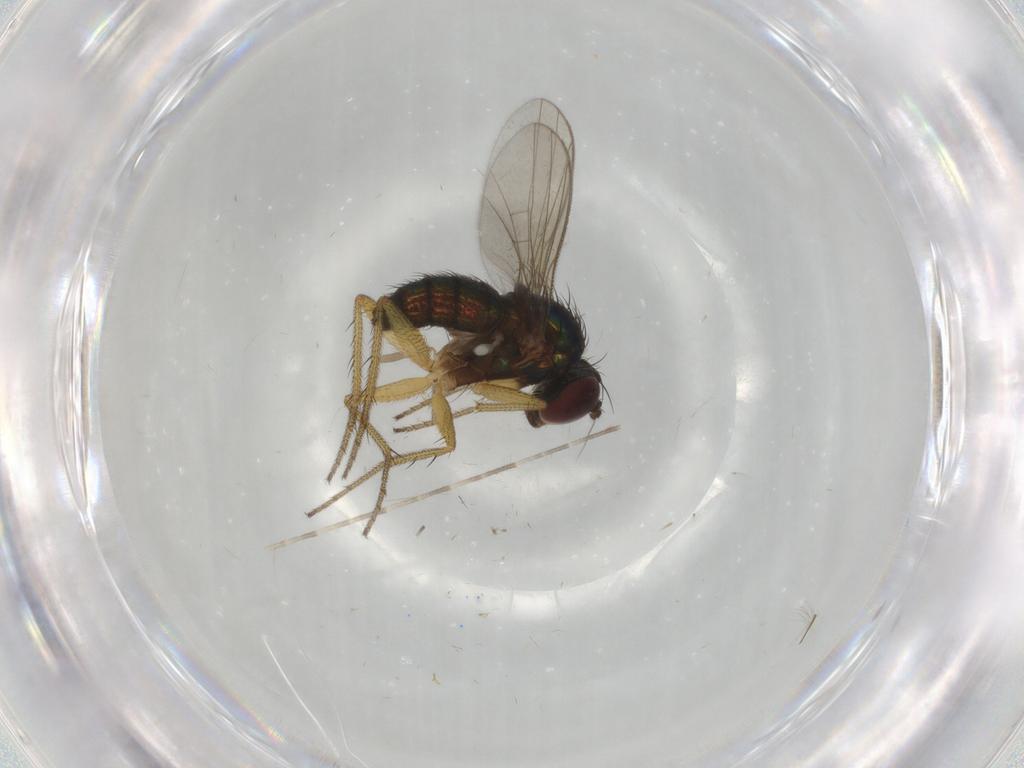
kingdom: Animalia
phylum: Arthropoda
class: Insecta
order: Diptera
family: Dolichopodidae
